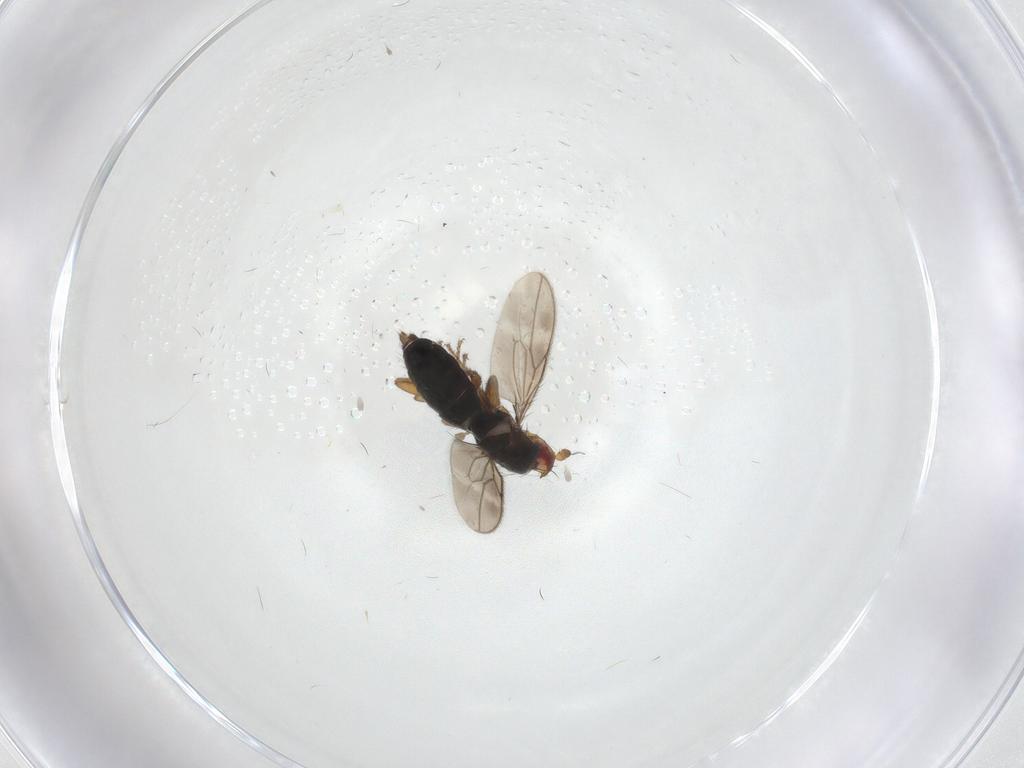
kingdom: Animalia
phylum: Arthropoda
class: Insecta
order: Diptera
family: Sphaeroceridae
